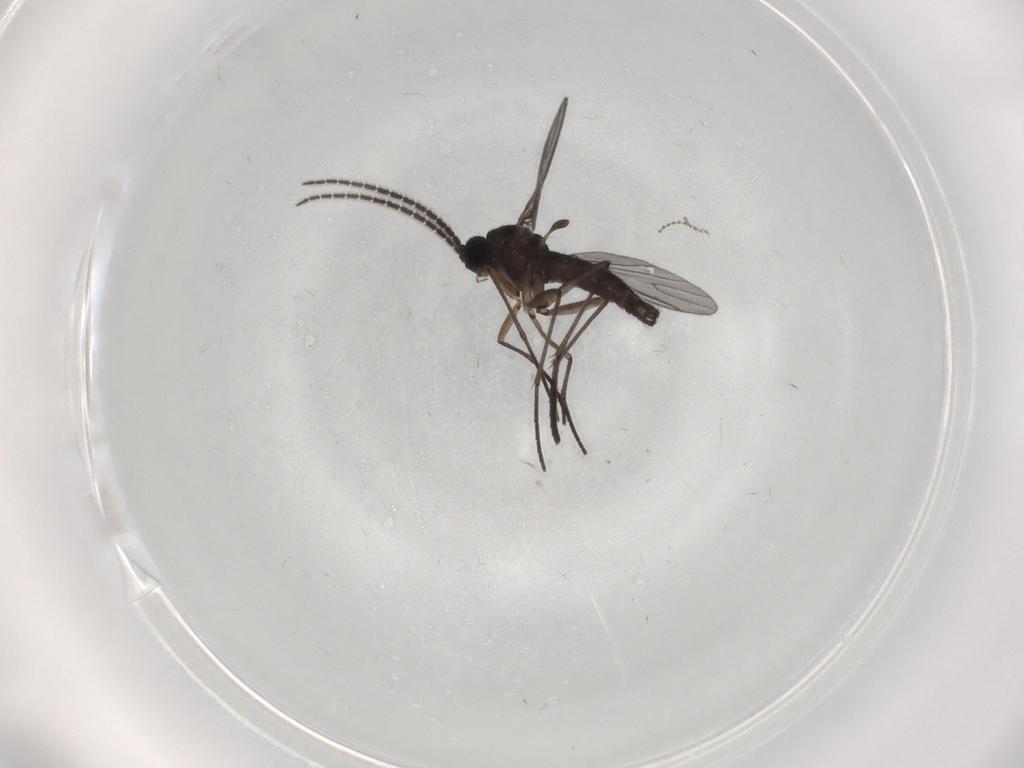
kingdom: Animalia
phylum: Arthropoda
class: Insecta
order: Diptera
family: Sciaridae
